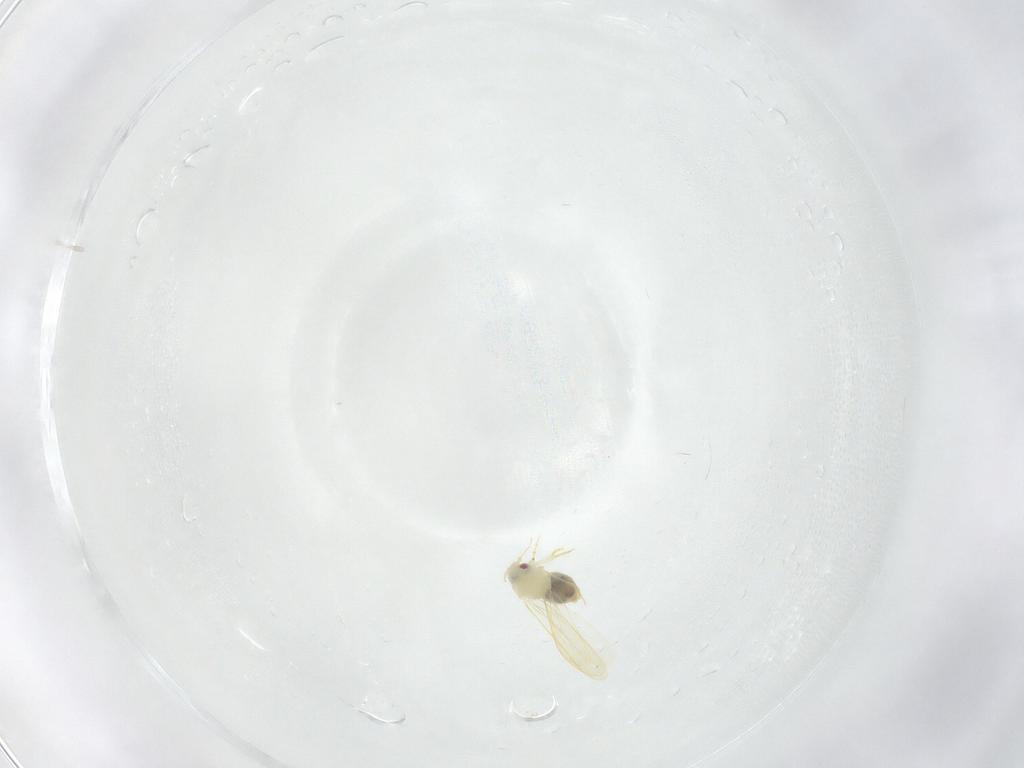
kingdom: Animalia
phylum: Arthropoda
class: Insecta
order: Hemiptera
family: Aleyrodidae
